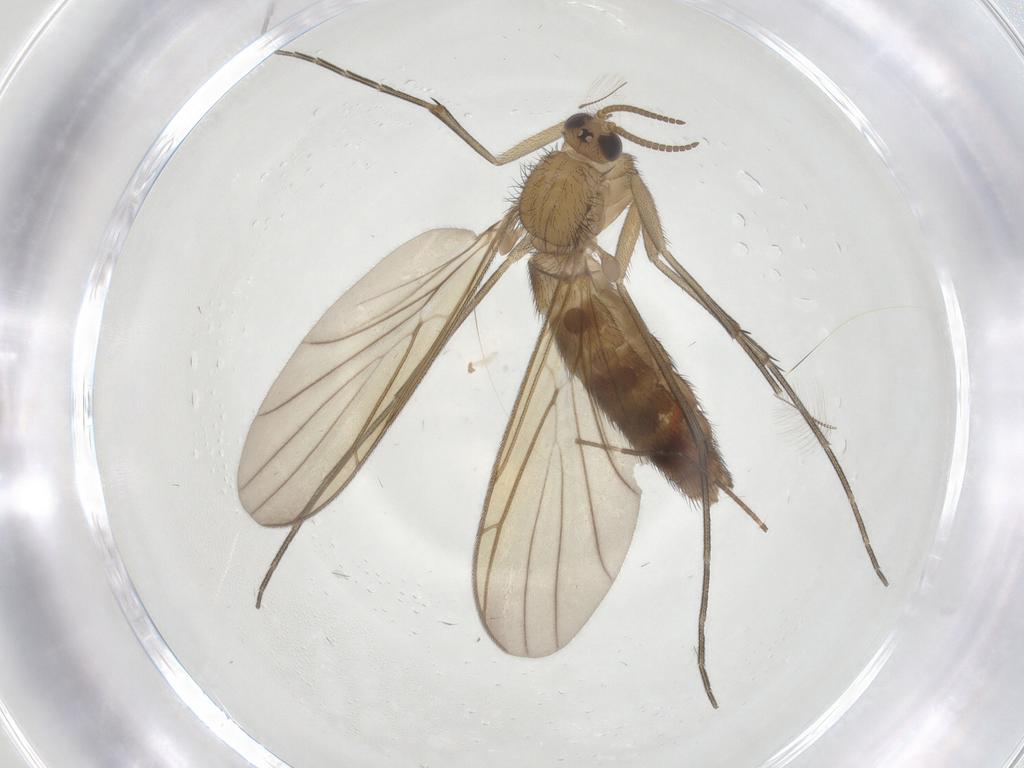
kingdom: Animalia
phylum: Arthropoda
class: Insecta
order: Diptera
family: Keroplatidae
